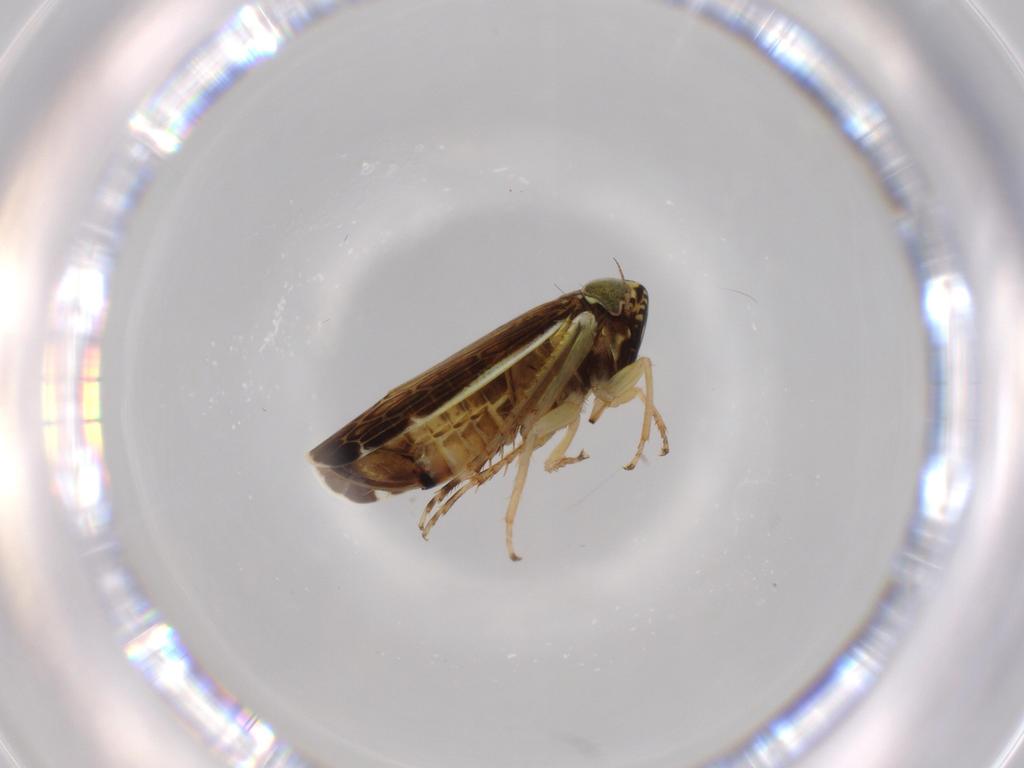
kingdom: Animalia
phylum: Arthropoda
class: Insecta
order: Hemiptera
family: Cicadellidae
